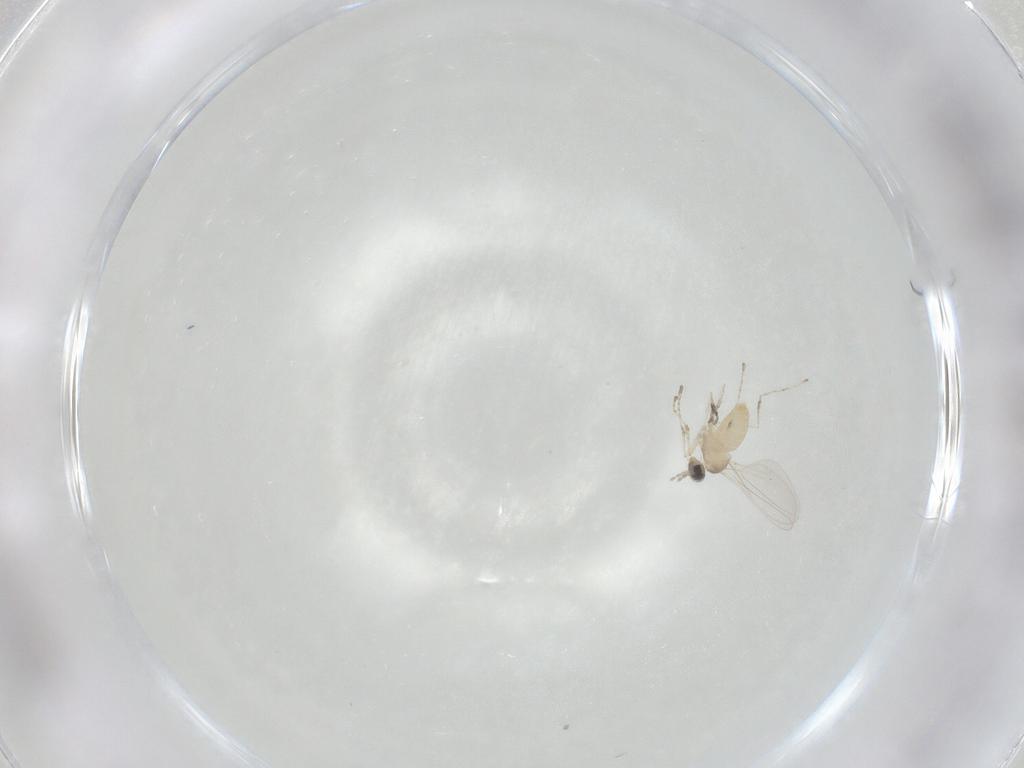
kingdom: Animalia
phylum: Arthropoda
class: Insecta
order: Diptera
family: Cecidomyiidae
